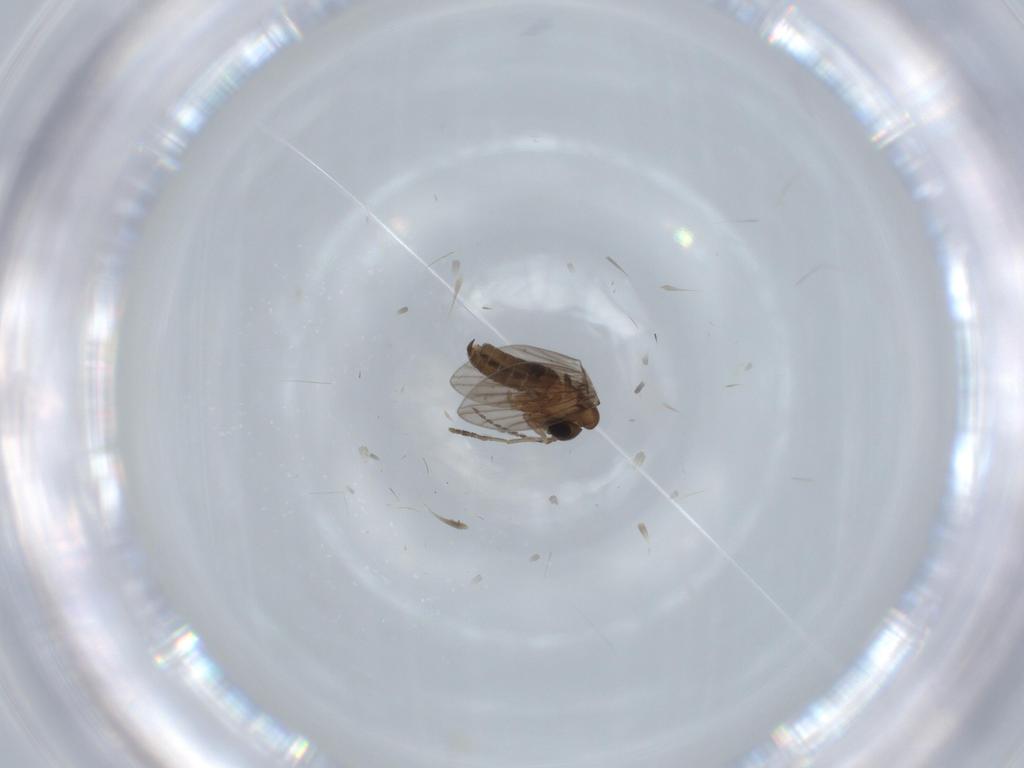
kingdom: Animalia
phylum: Arthropoda
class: Insecta
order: Diptera
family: Psychodidae
